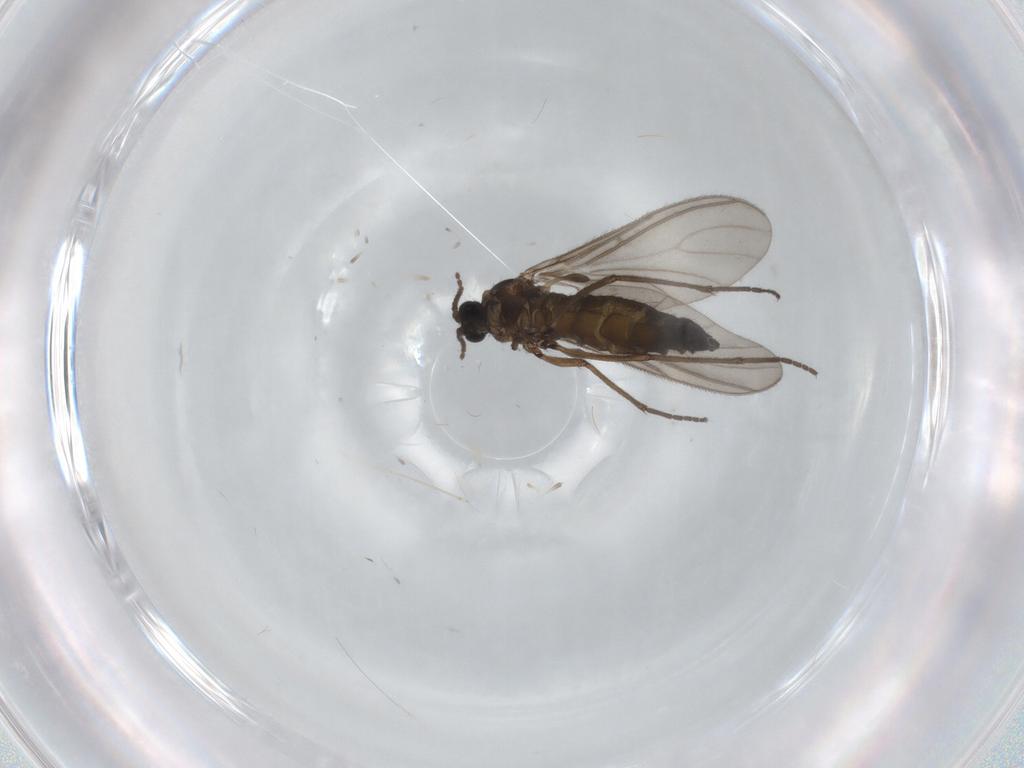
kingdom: Animalia
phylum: Arthropoda
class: Insecta
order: Diptera
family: Sciaridae
